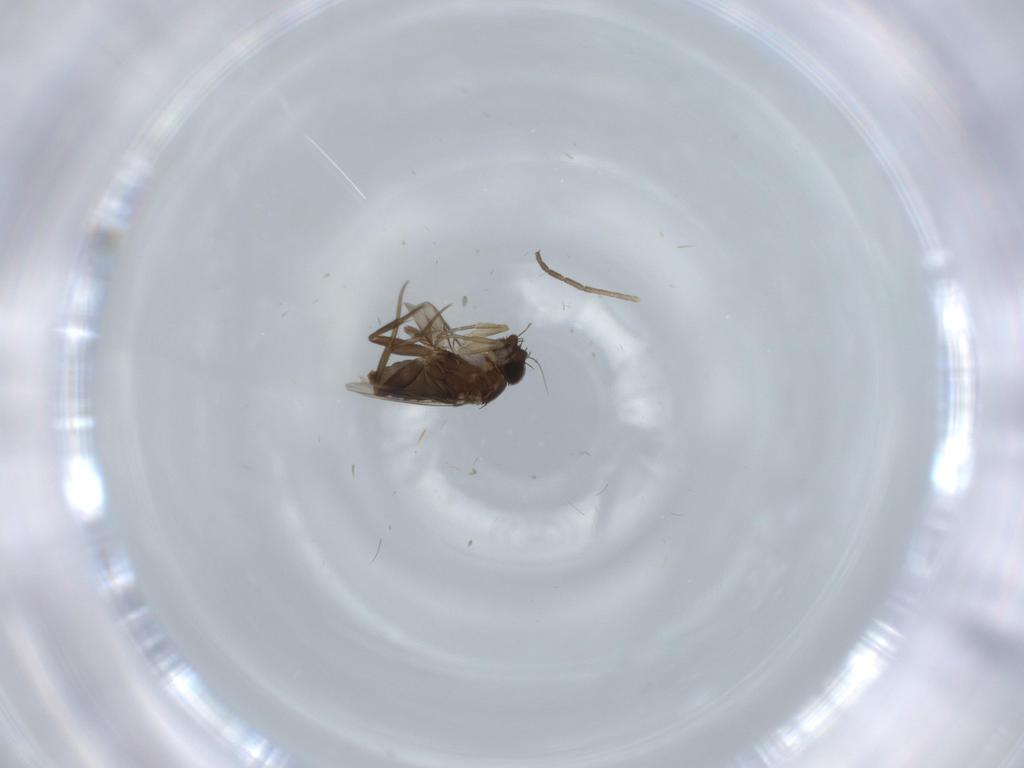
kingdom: Animalia
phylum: Arthropoda
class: Insecta
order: Diptera
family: Phoridae
